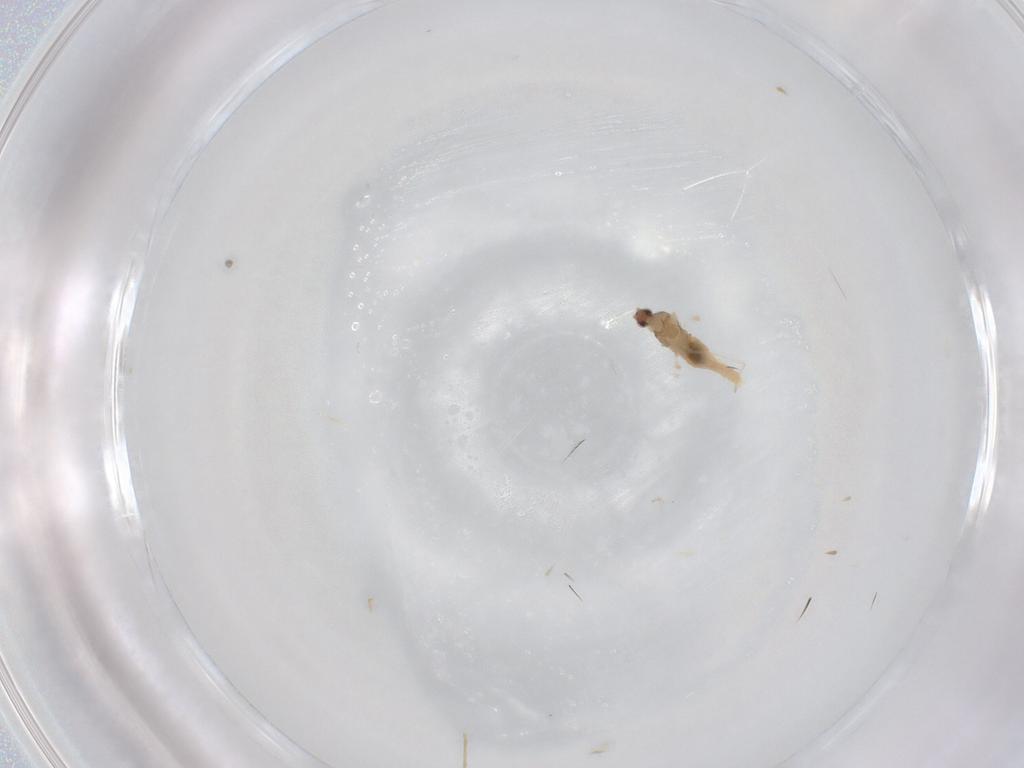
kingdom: Animalia
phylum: Arthropoda
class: Insecta
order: Diptera
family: Cecidomyiidae
